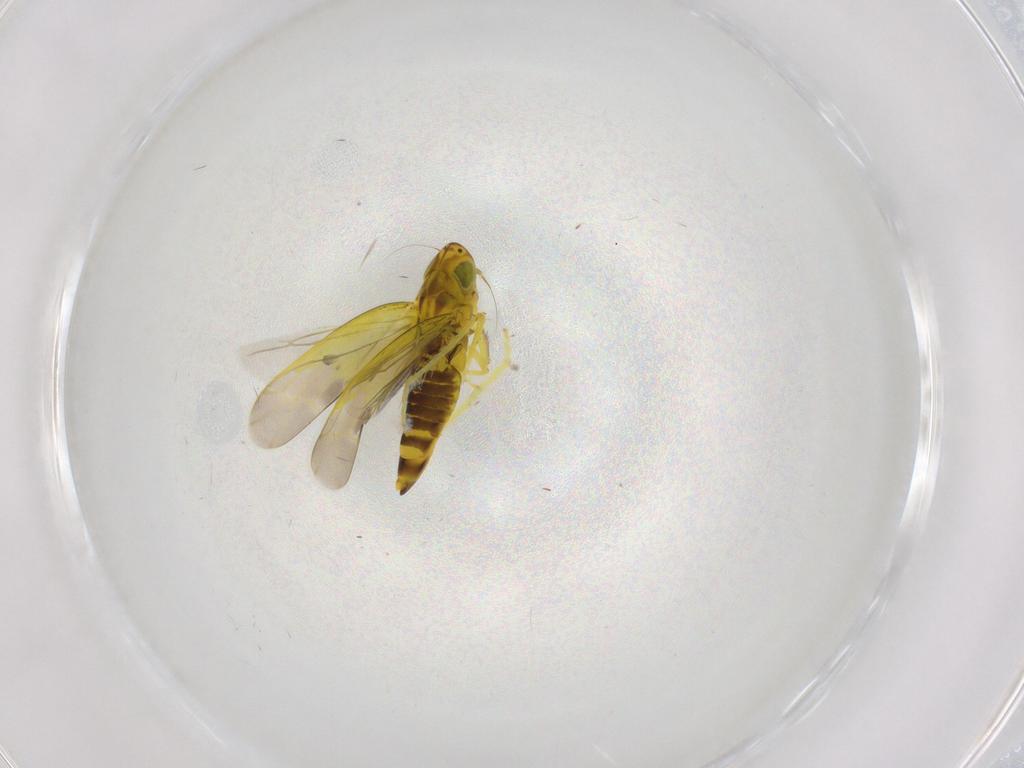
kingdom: Animalia
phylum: Arthropoda
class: Insecta
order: Hemiptera
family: Cicadellidae
